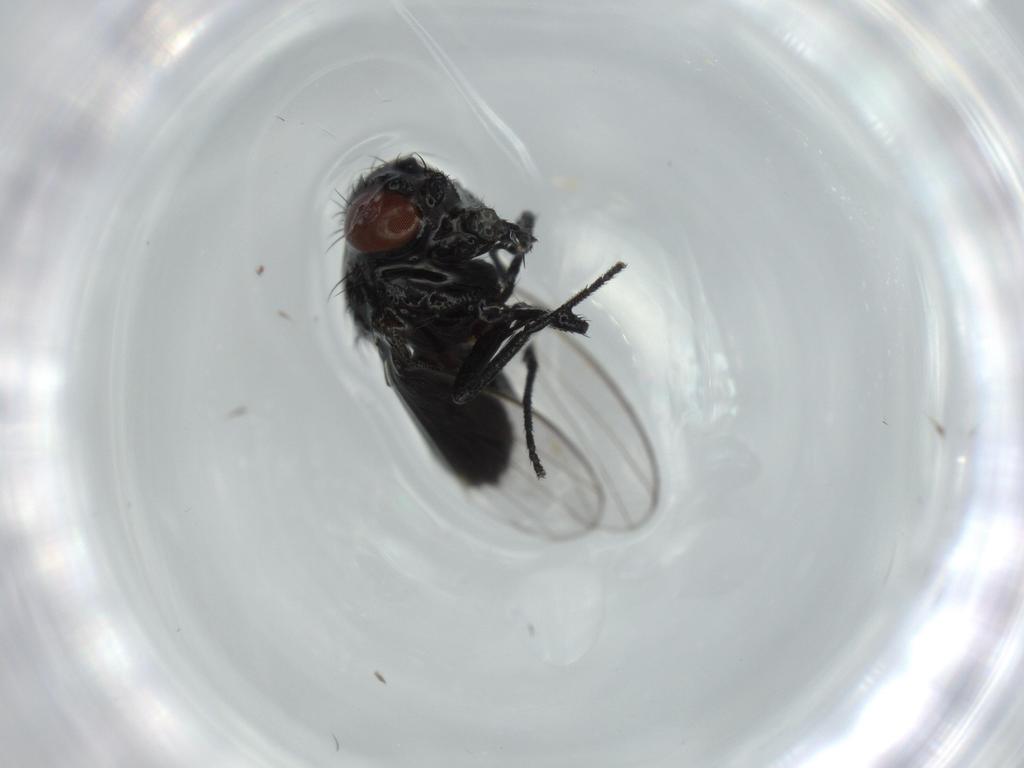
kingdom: Animalia
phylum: Arthropoda
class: Insecta
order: Diptera
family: Milichiidae
